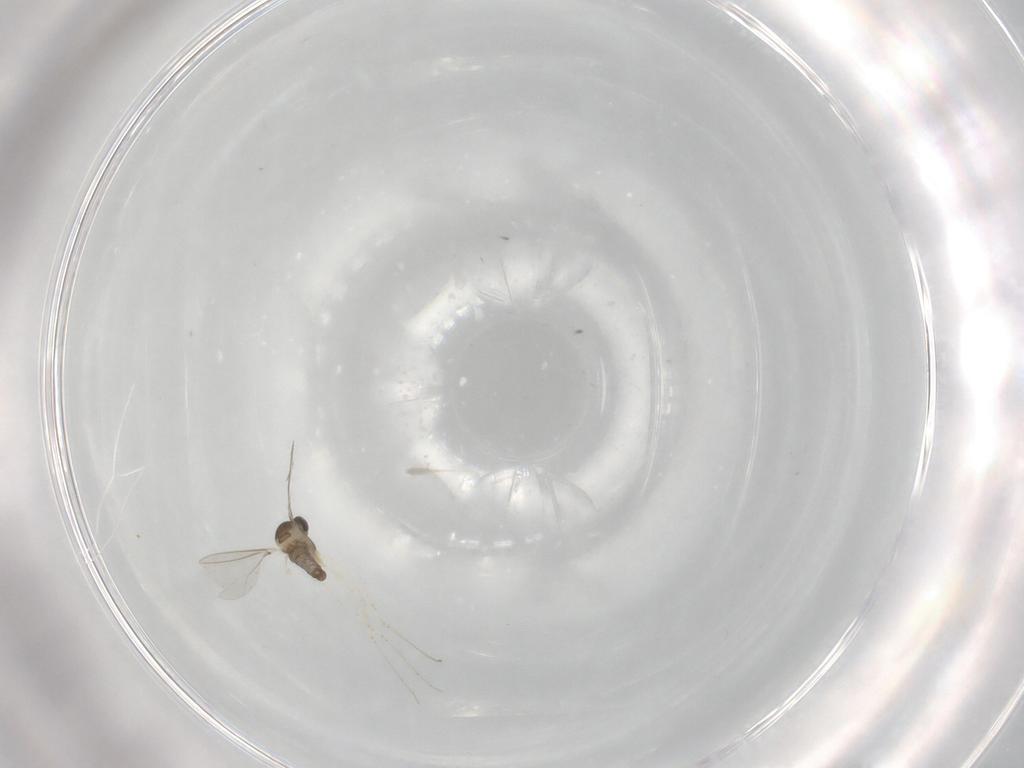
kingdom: Animalia
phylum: Arthropoda
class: Insecta
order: Diptera
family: Cecidomyiidae
